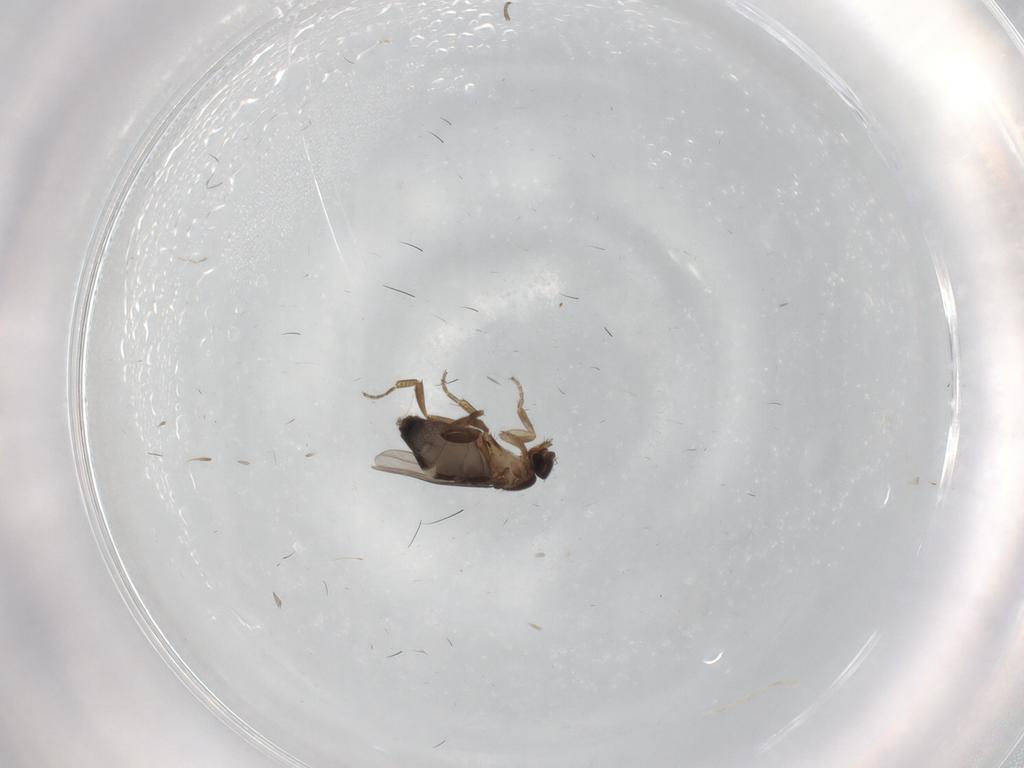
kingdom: Animalia
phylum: Arthropoda
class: Insecta
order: Diptera
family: Phoridae
